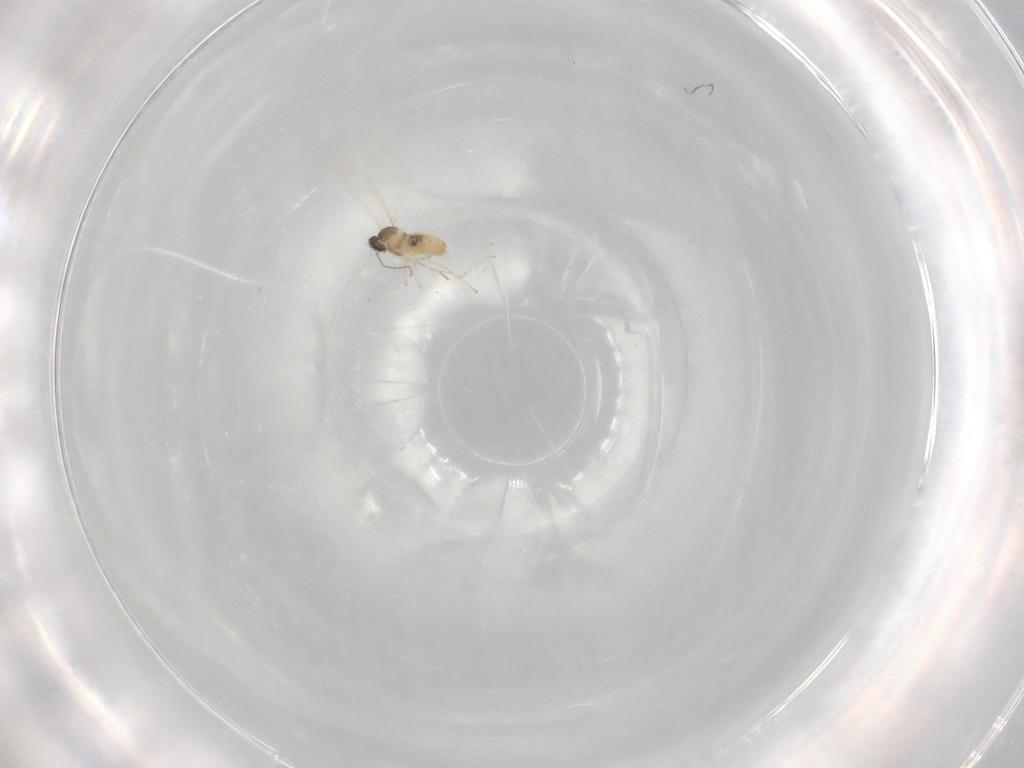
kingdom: Animalia
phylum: Arthropoda
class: Insecta
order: Diptera
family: Cecidomyiidae
